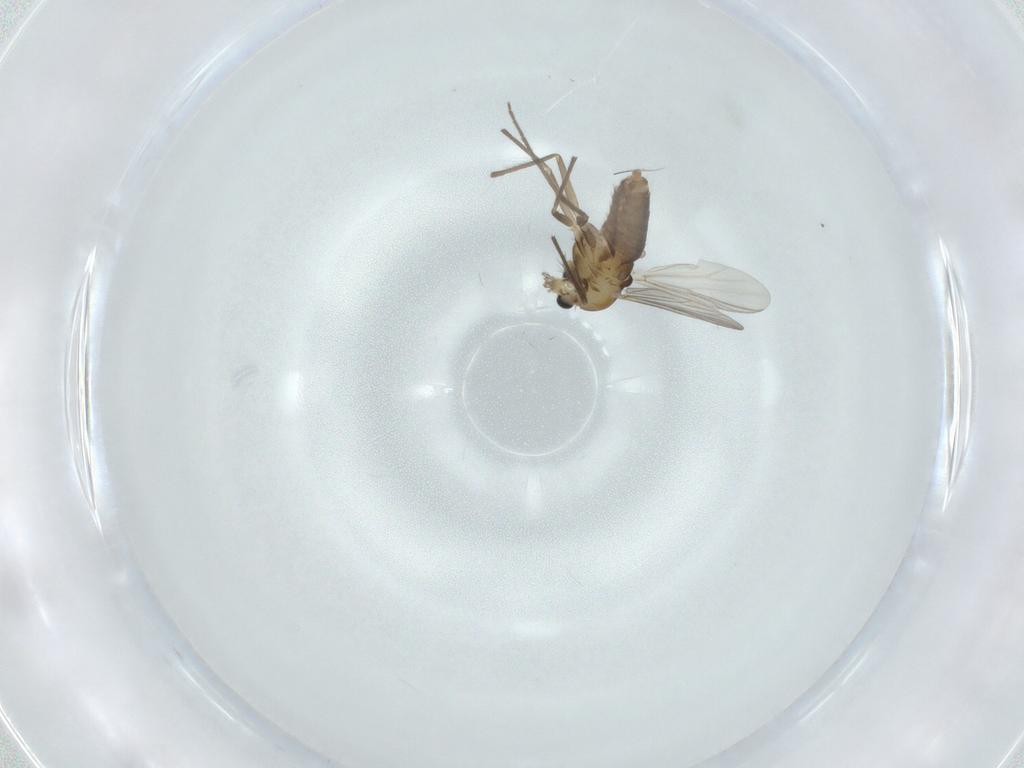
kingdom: Animalia
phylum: Arthropoda
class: Insecta
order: Diptera
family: Chironomidae
